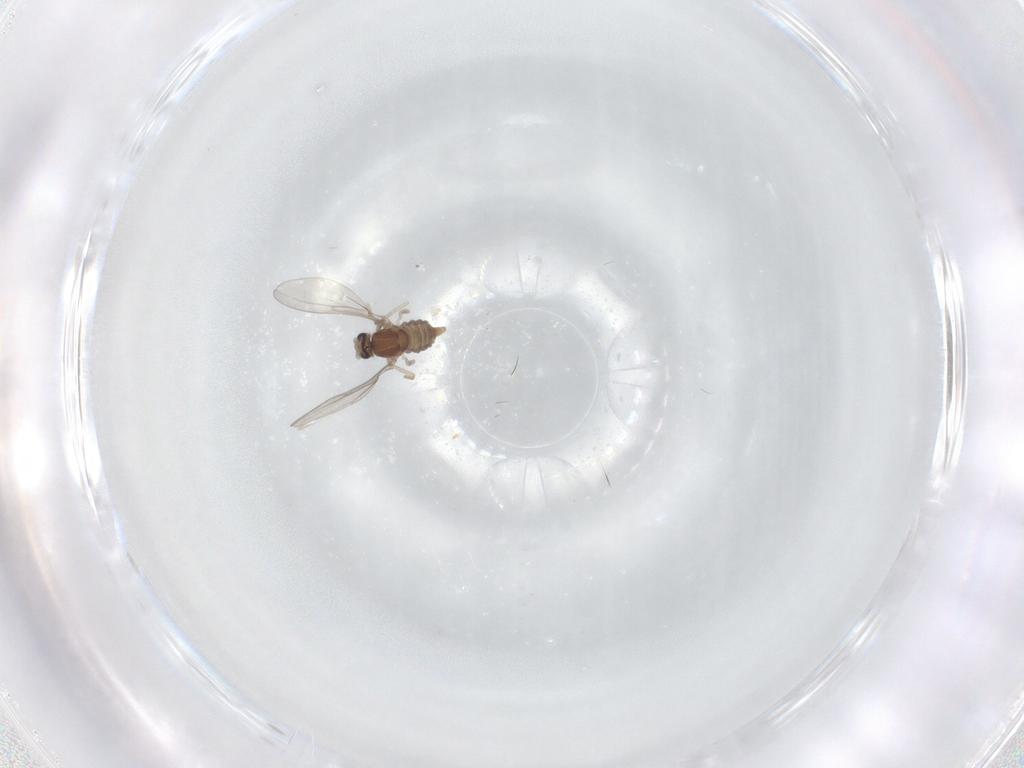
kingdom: Animalia
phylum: Arthropoda
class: Insecta
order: Diptera
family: Cecidomyiidae
